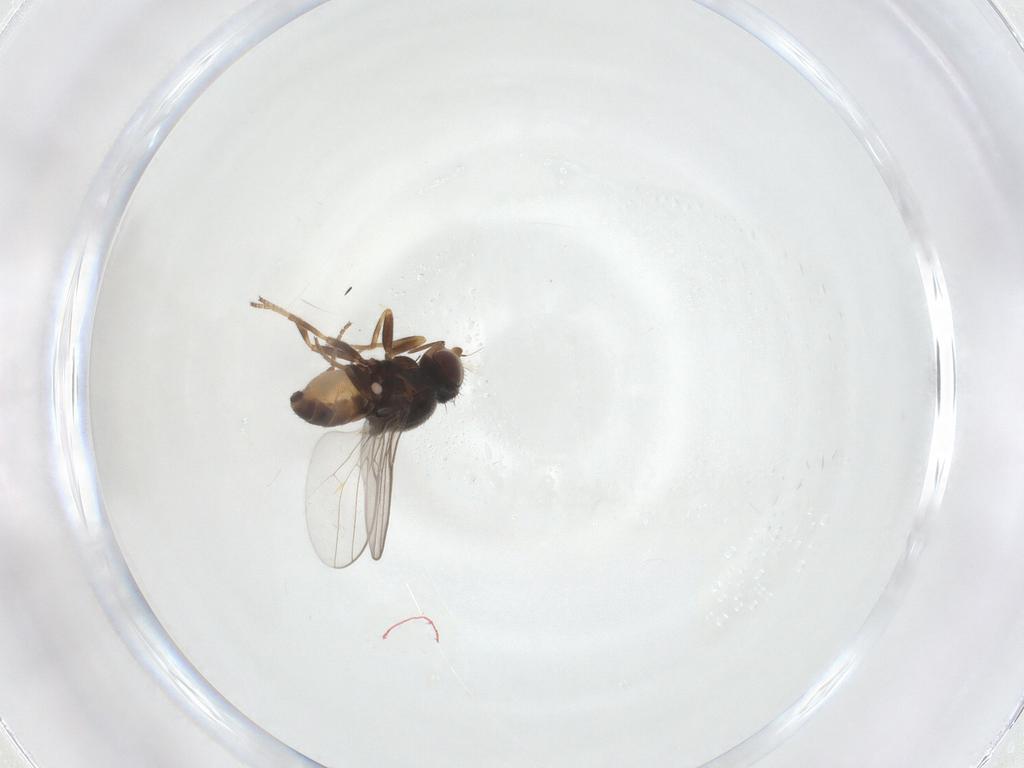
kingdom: Animalia
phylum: Arthropoda
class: Insecta
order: Diptera
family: Chloropidae
